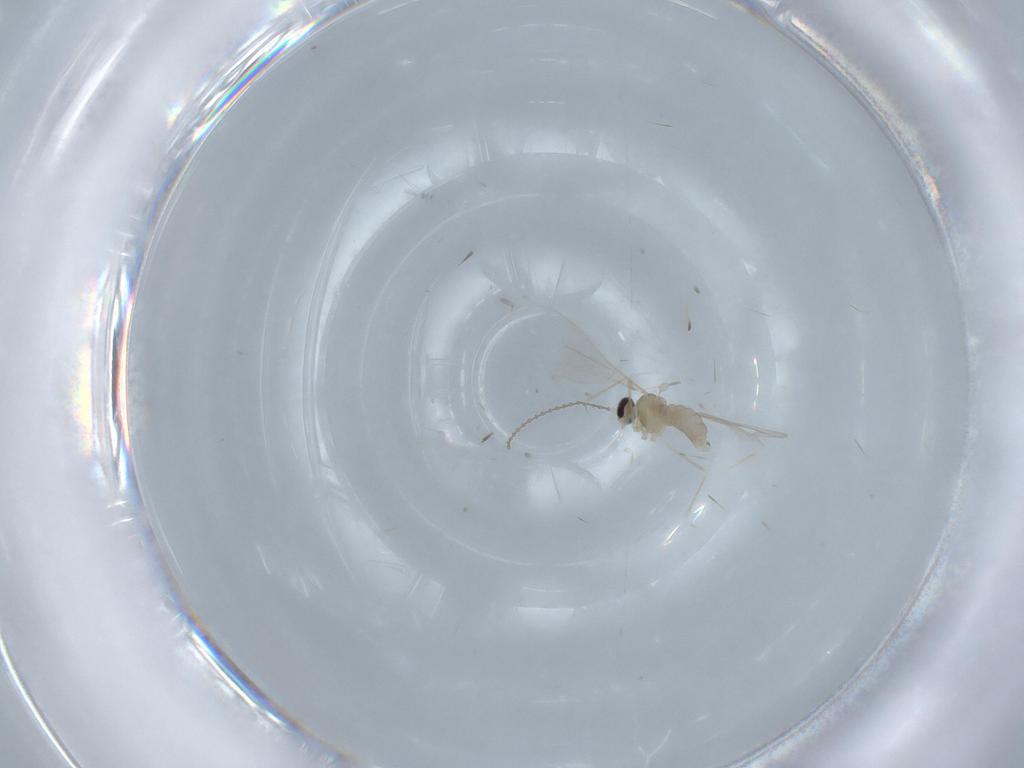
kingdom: Animalia
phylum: Arthropoda
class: Insecta
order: Diptera
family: Cecidomyiidae
